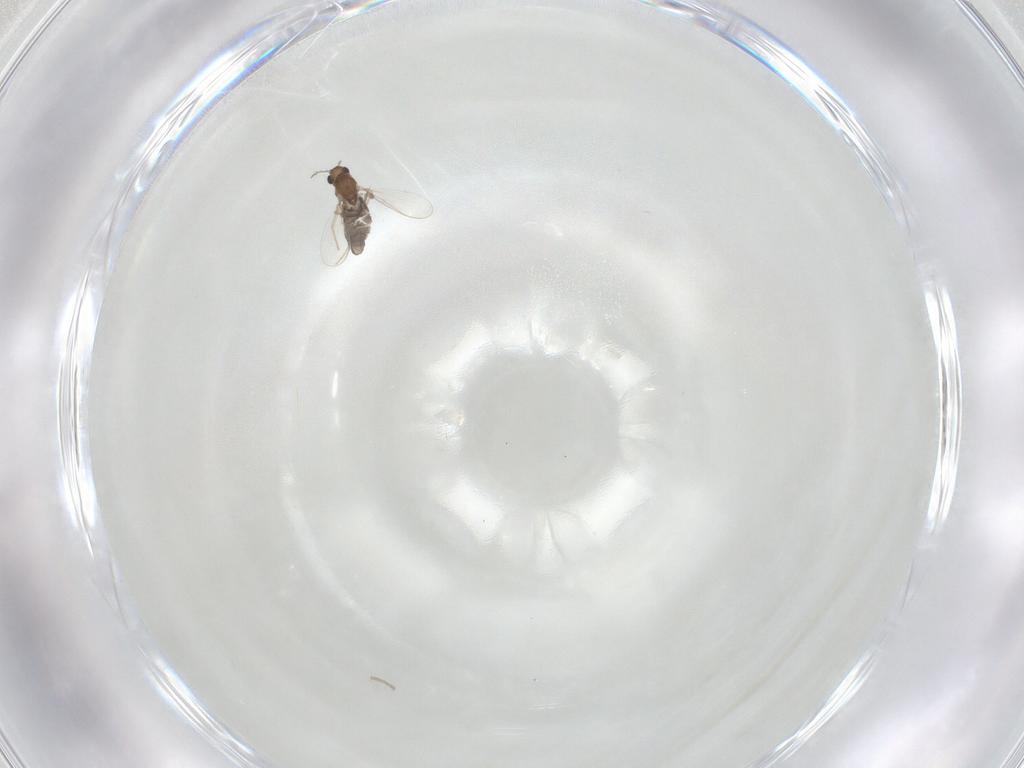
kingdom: Animalia
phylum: Arthropoda
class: Insecta
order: Diptera
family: Chironomidae
